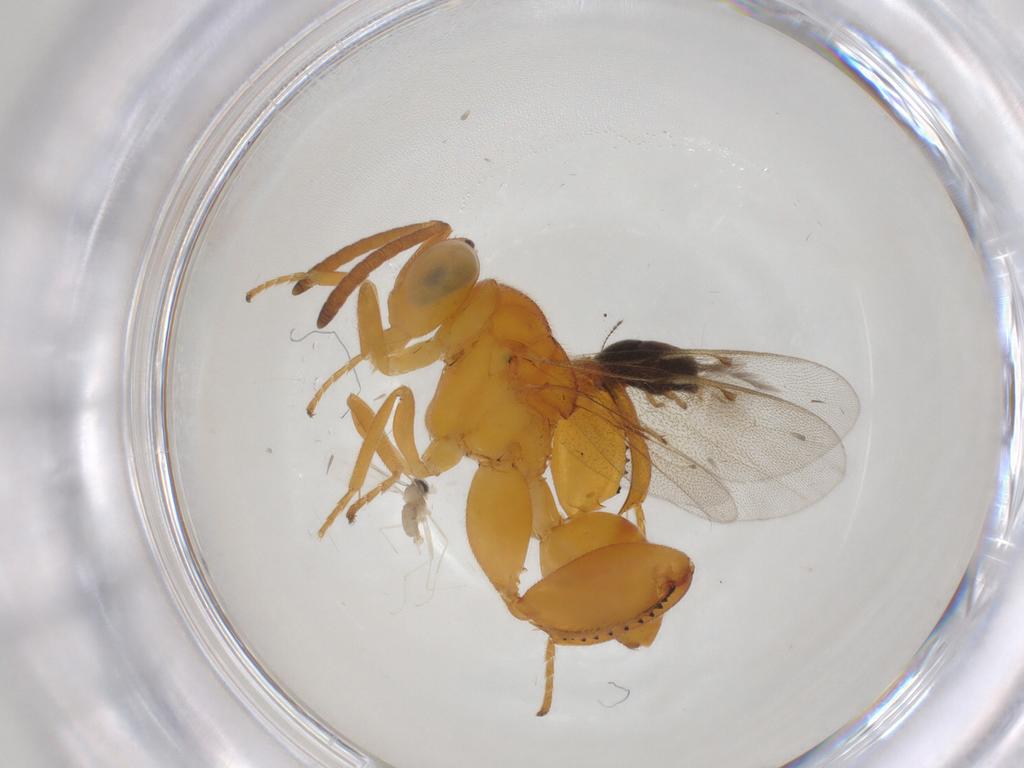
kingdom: Animalia
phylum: Arthropoda
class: Insecta
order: Hymenoptera
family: Chalcididae
